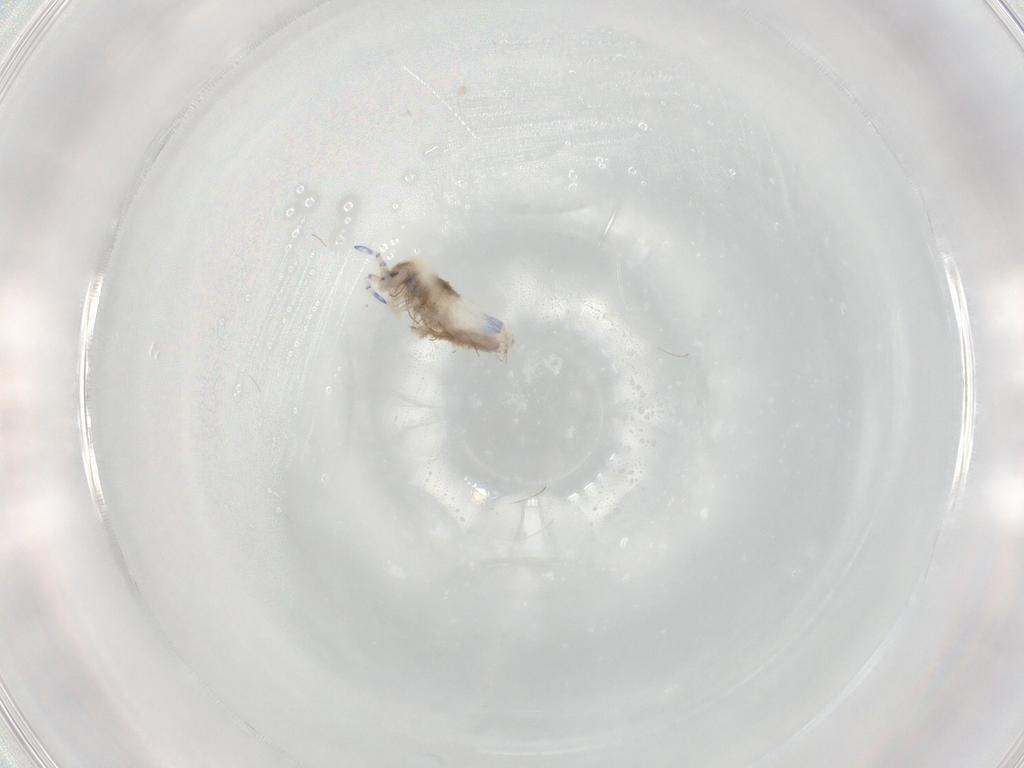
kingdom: Animalia
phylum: Arthropoda
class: Collembola
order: Entomobryomorpha
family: Entomobryidae
